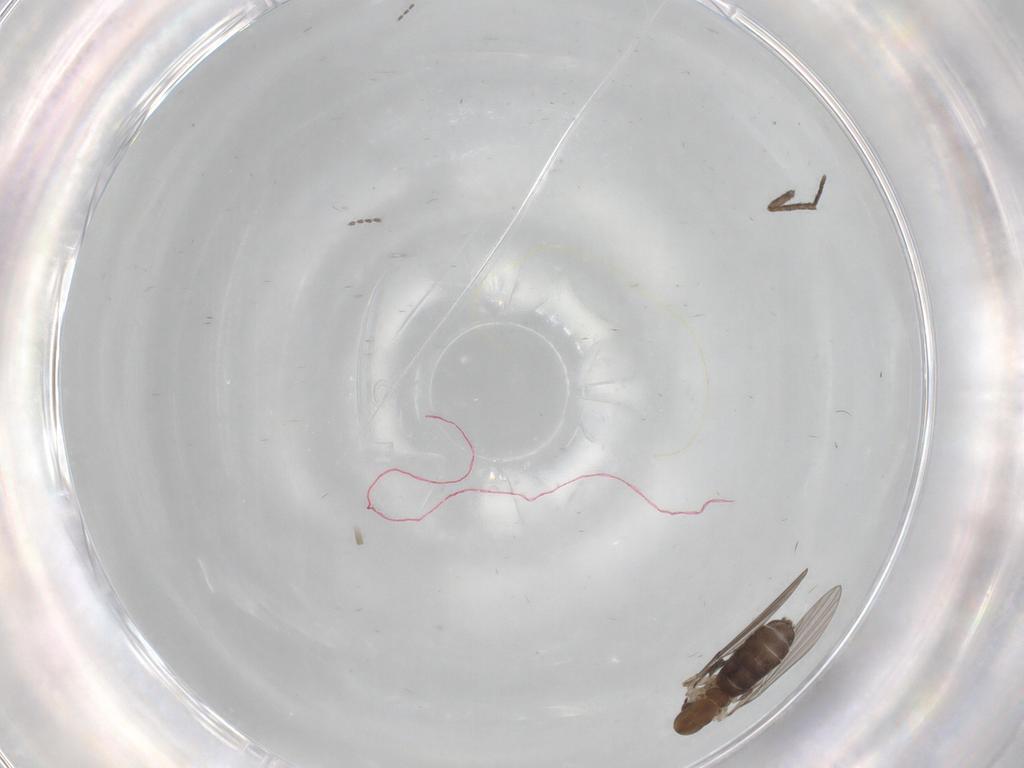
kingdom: Animalia
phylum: Arthropoda
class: Insecta
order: Diptera
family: Psychodidae
